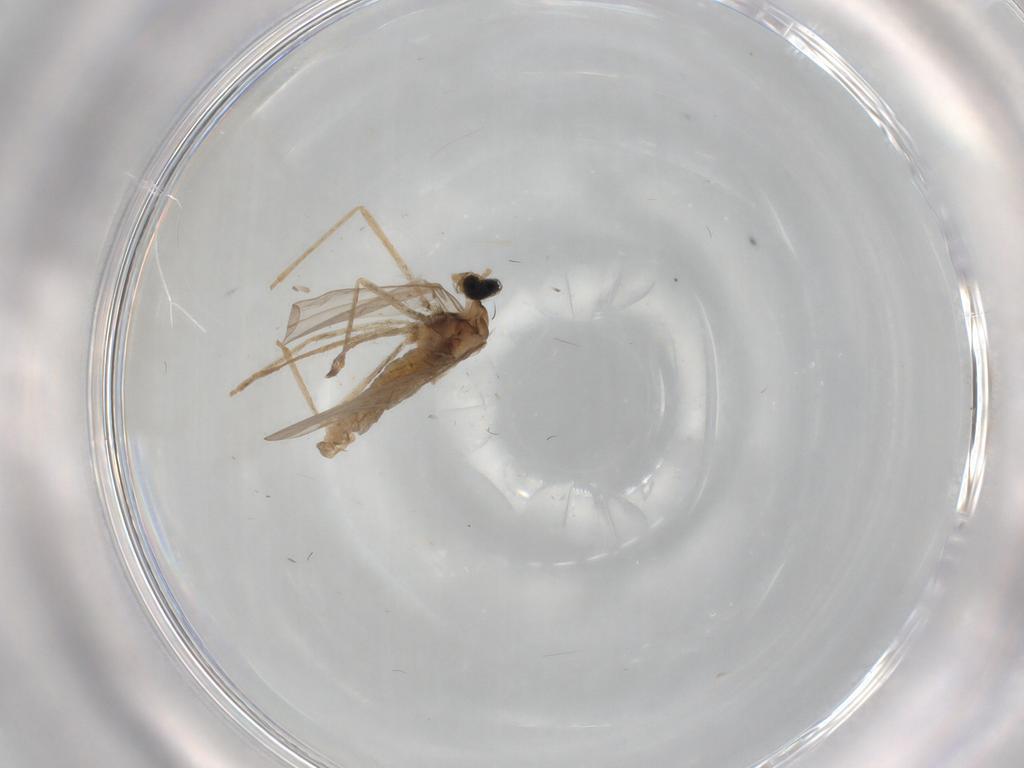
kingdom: Animalia
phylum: Arthropoda
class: Insecta
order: Diptera
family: Cecidomyiidae
